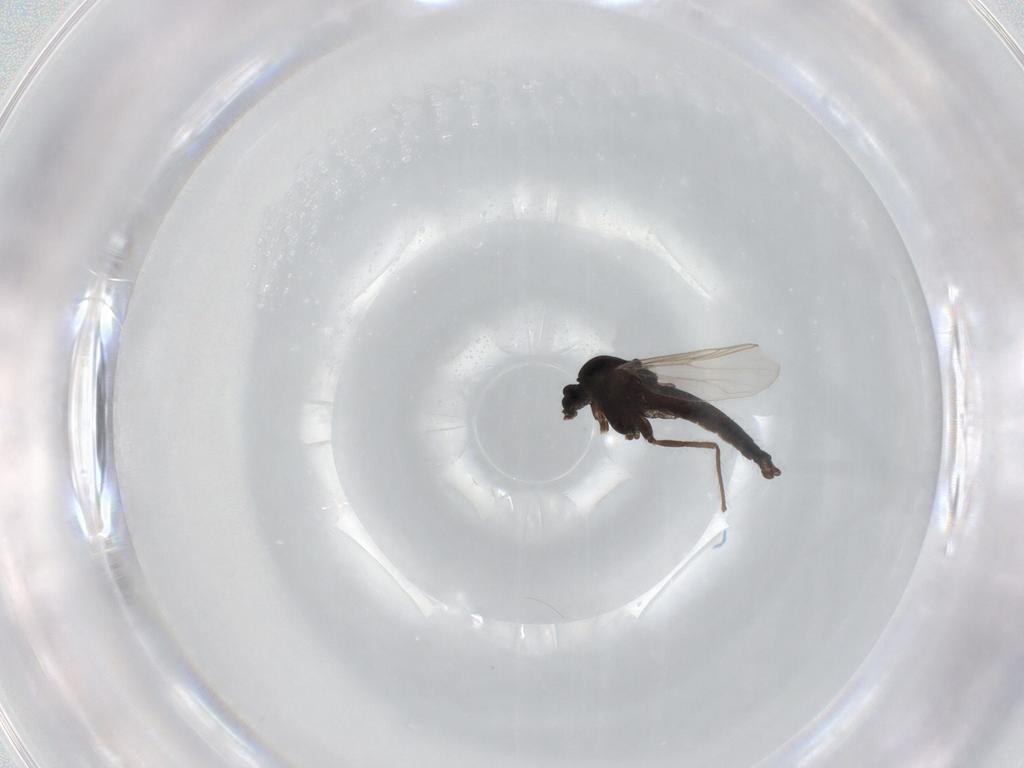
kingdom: Animalia
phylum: Arthropoda
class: Insecta
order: Diptera
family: Chironomidae
